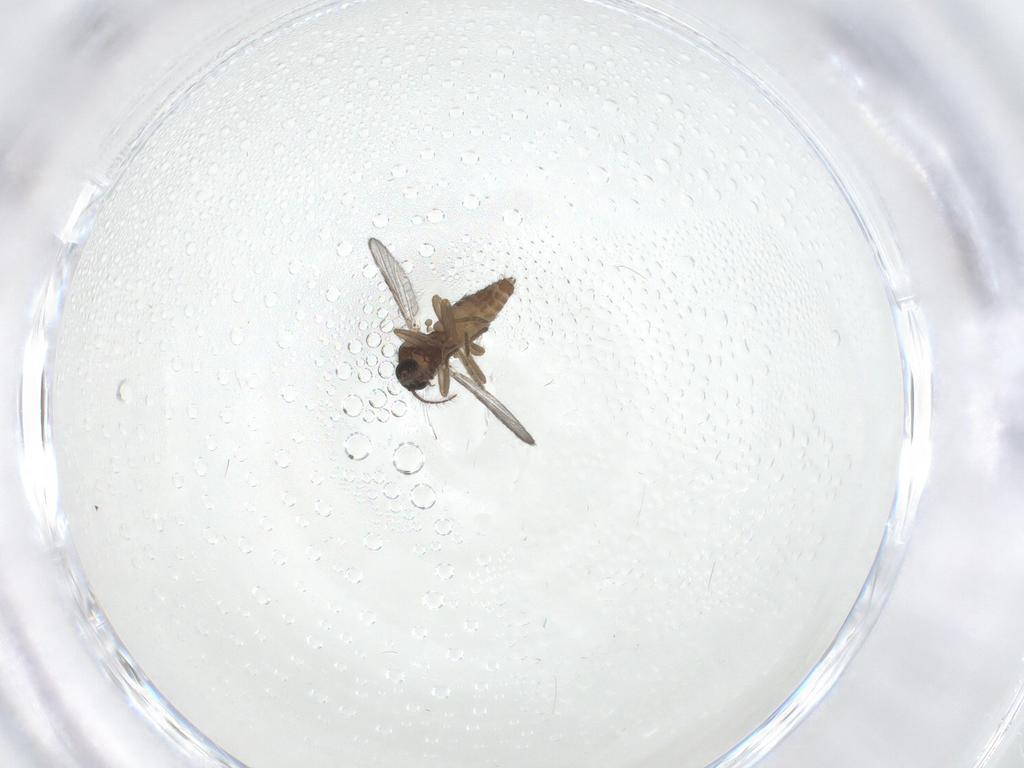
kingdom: Animalia
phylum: Arthropoda
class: Insecta
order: Diptera
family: Ceratopogonidae
